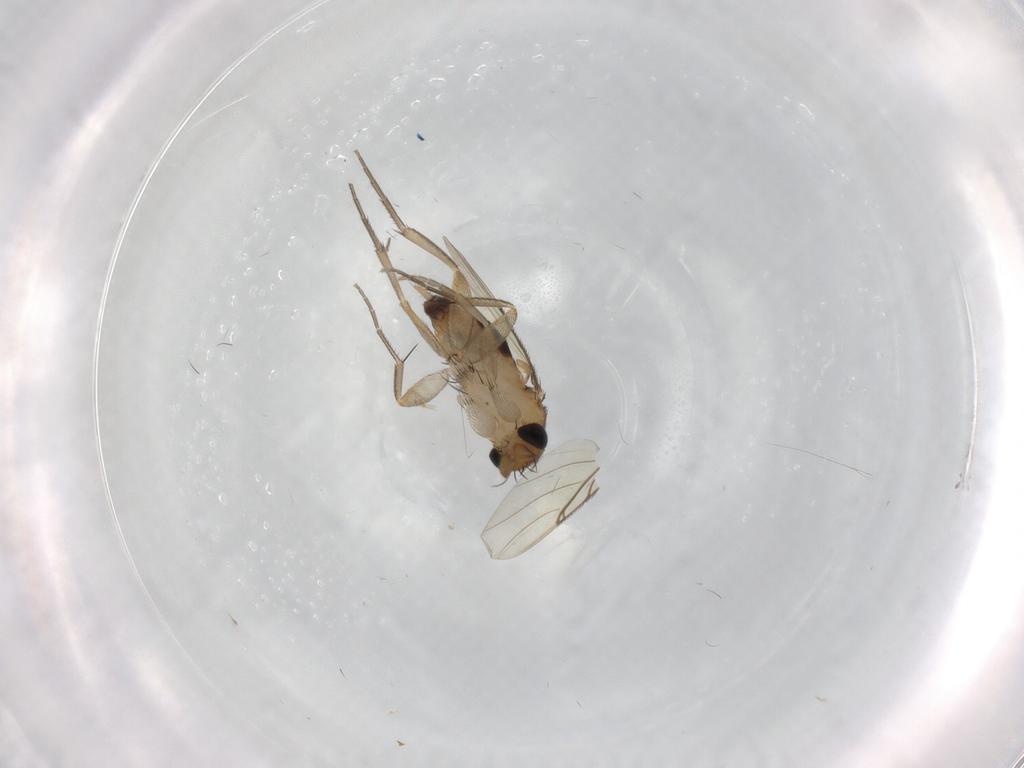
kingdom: Animalia
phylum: Arthropoda
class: Insecta
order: Diptera
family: Phoridae
